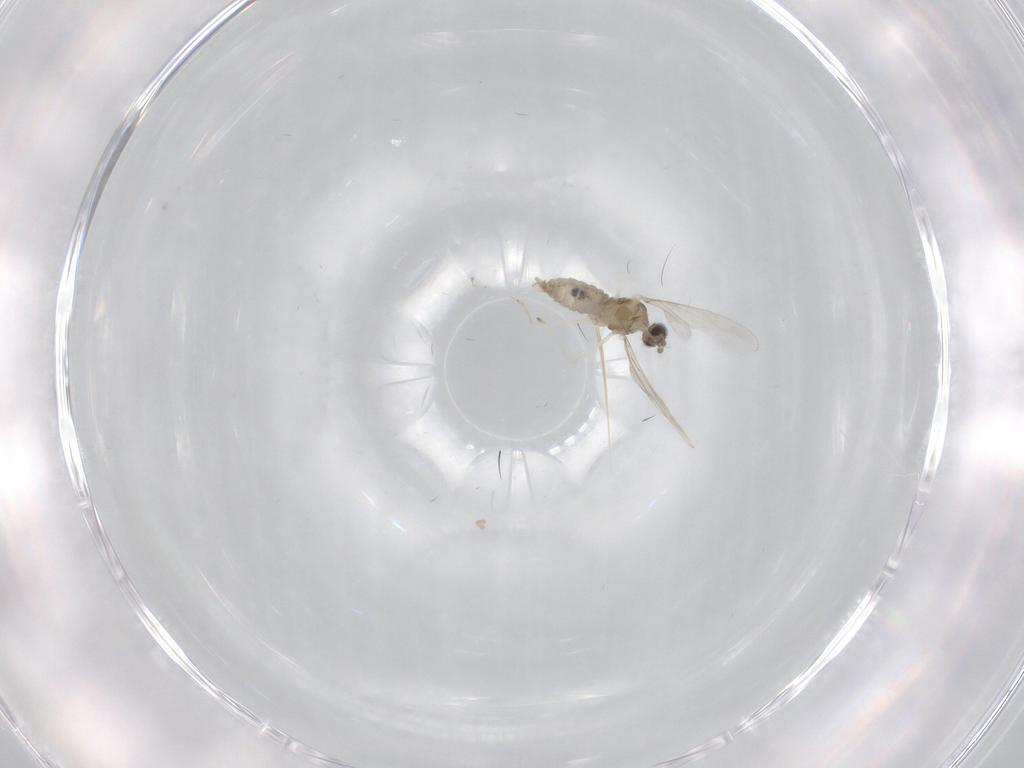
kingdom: Animalia
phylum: Arthropoda
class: Insecta
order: Diptera
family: Cecidomyiidae
